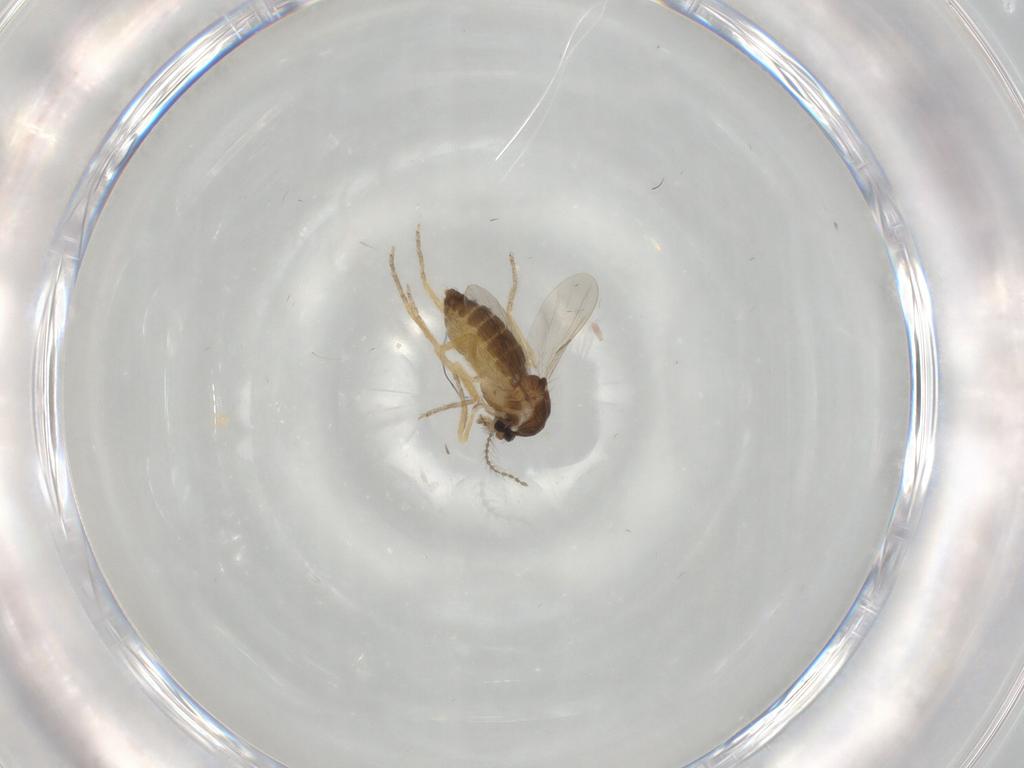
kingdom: Animalia
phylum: Arthropoda
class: Insecta
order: Diptera
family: Ceratopogonidae
